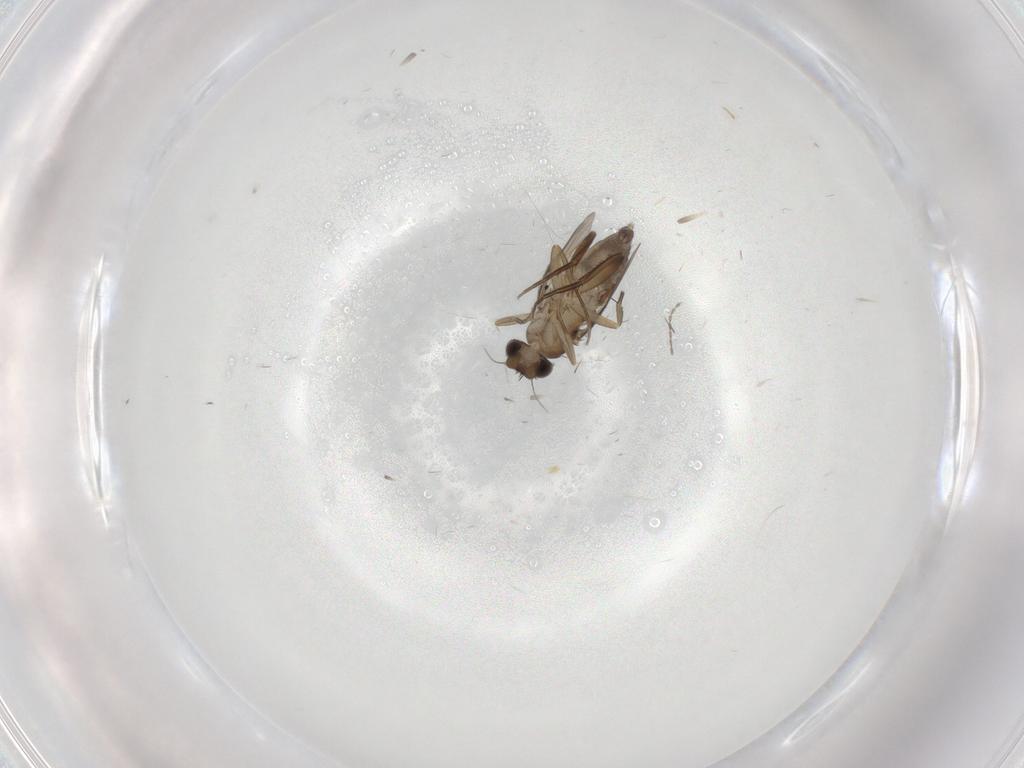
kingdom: Animalia
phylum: Arthropoda
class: Insecta
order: Diptera
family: Phoridae
